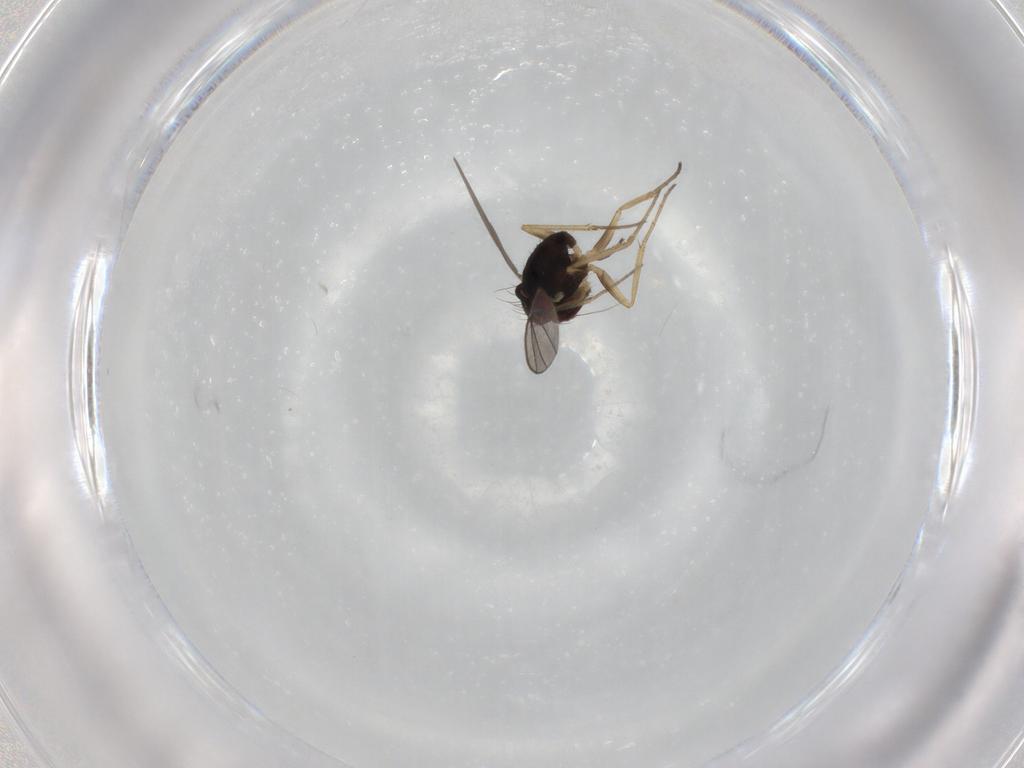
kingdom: Animalia
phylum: Arthropoda
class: Insecta
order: Diptera
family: Dolichopodidae
